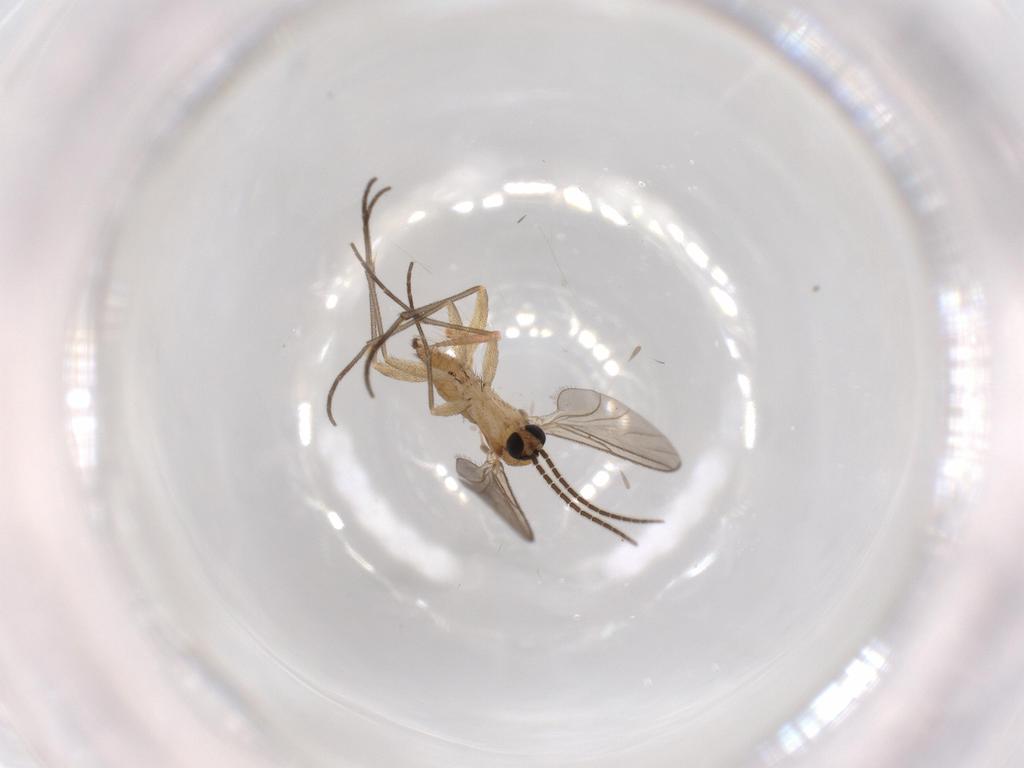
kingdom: Animalia
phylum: Arthropoda
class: Insecta
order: Diptera
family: Sciaridae
